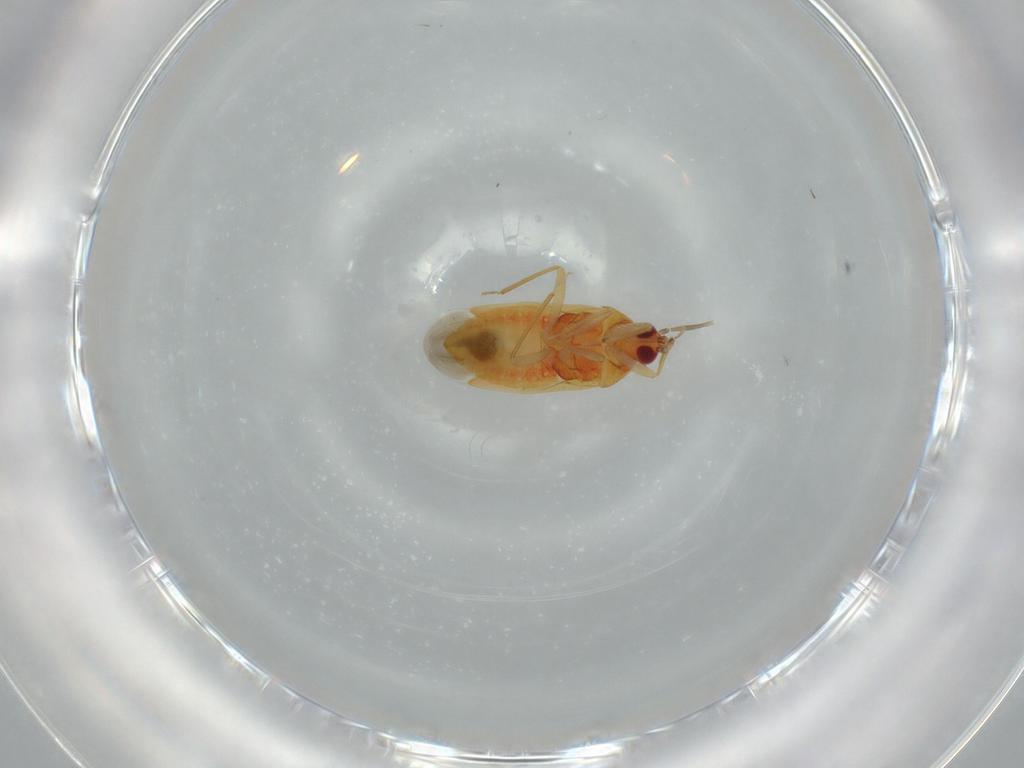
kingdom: Animalia
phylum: Arthropoda
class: Insecta
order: Hemiptera
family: Anthocoridae
